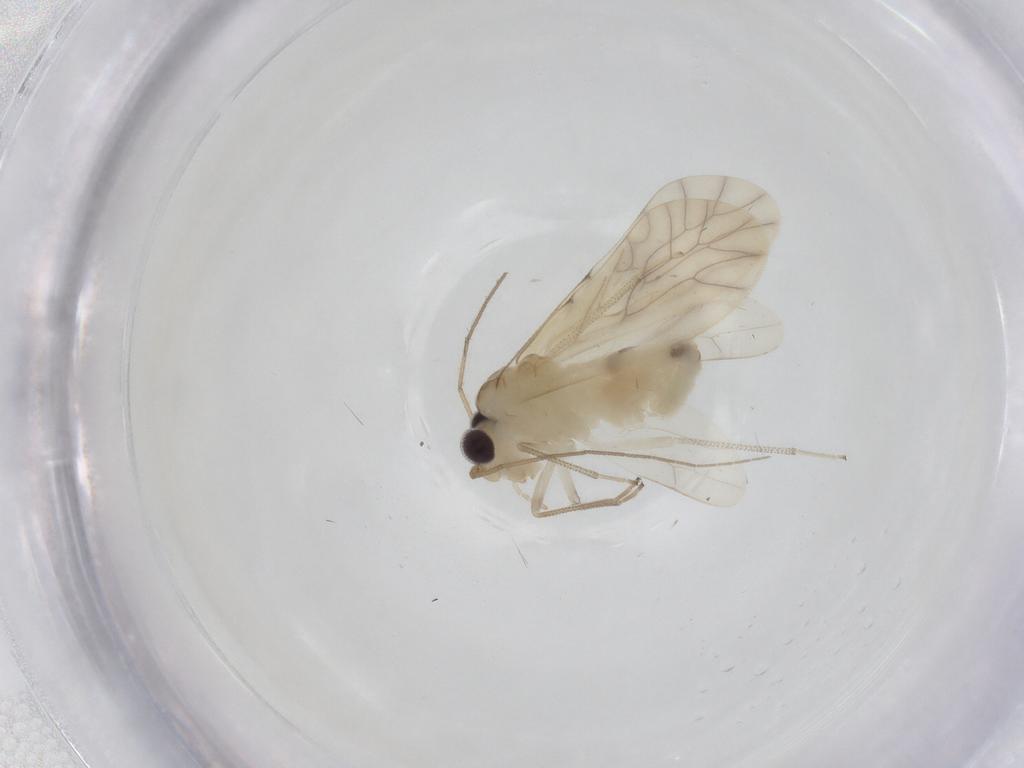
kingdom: Animalia
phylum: Arthropoda
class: Insecta
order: Psocodea
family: Caeciliusidae
